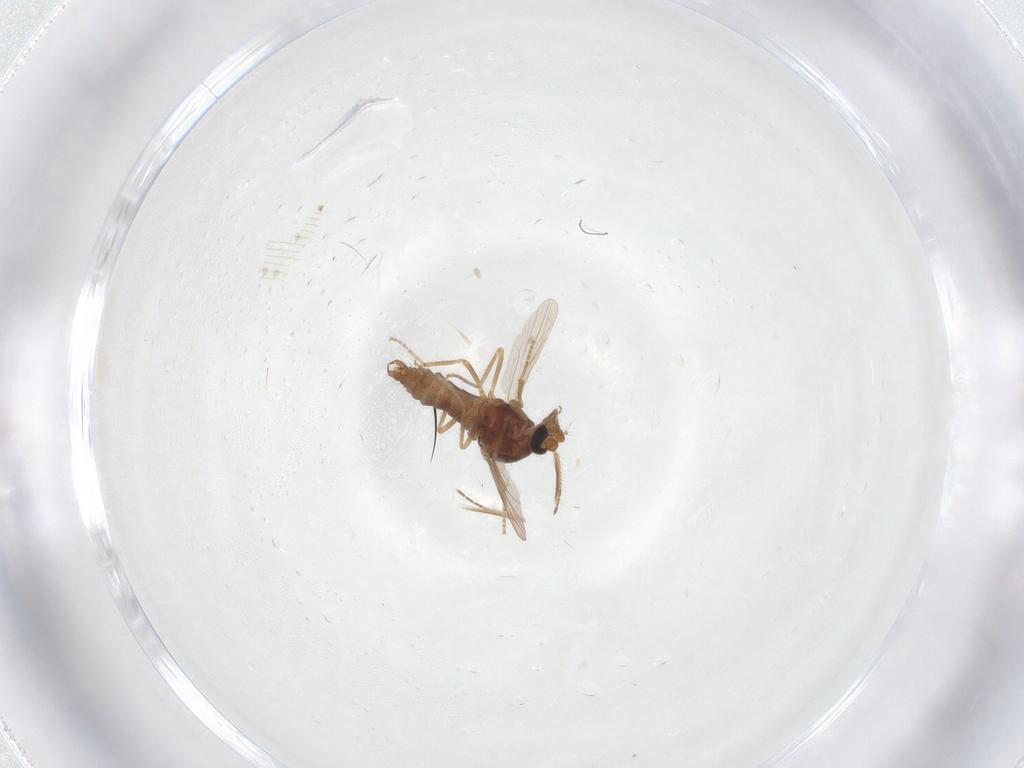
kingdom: Animalia
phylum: Arthropoda
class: Insecta
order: Diptera
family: Ceratopogonidae
